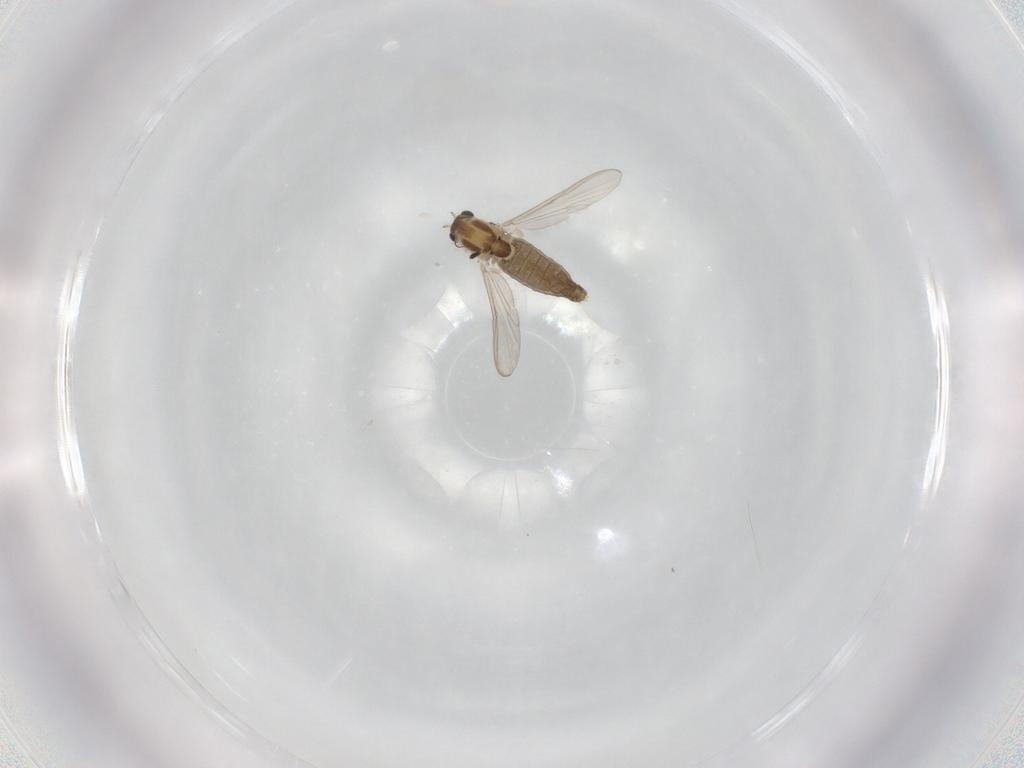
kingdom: Animalia
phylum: Arthropoda
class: Insecta
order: Diptera
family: Chironomidae
